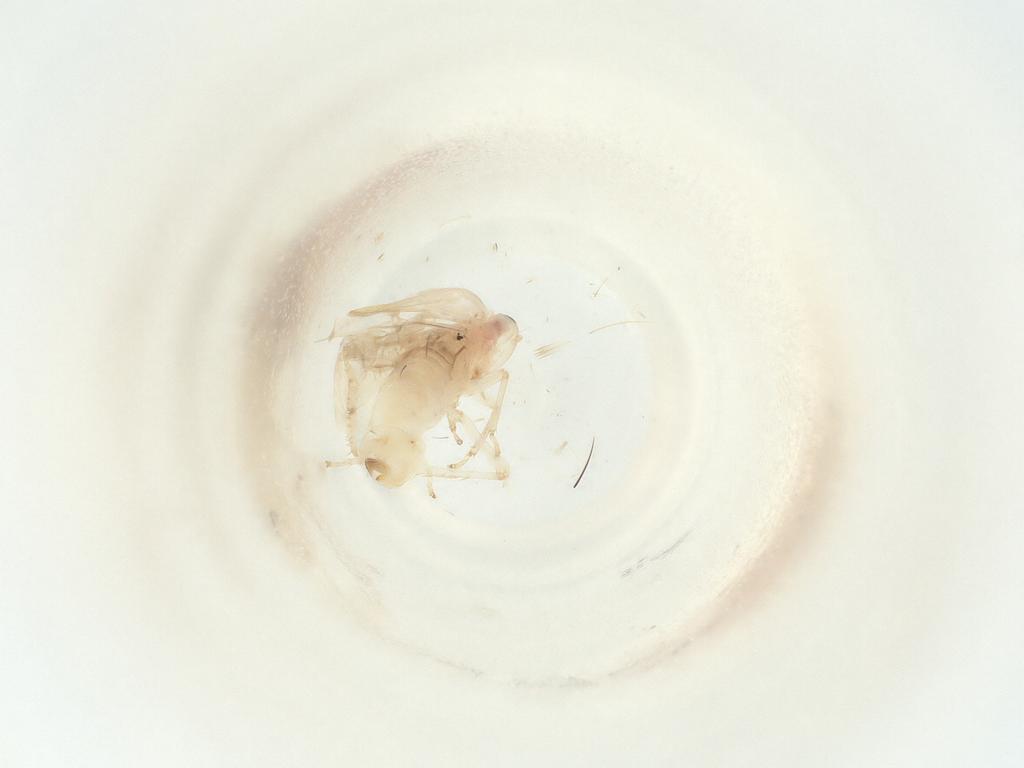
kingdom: Animalia
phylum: Arthropoda
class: Insecta
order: Hemiptera
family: Cicadellidae
